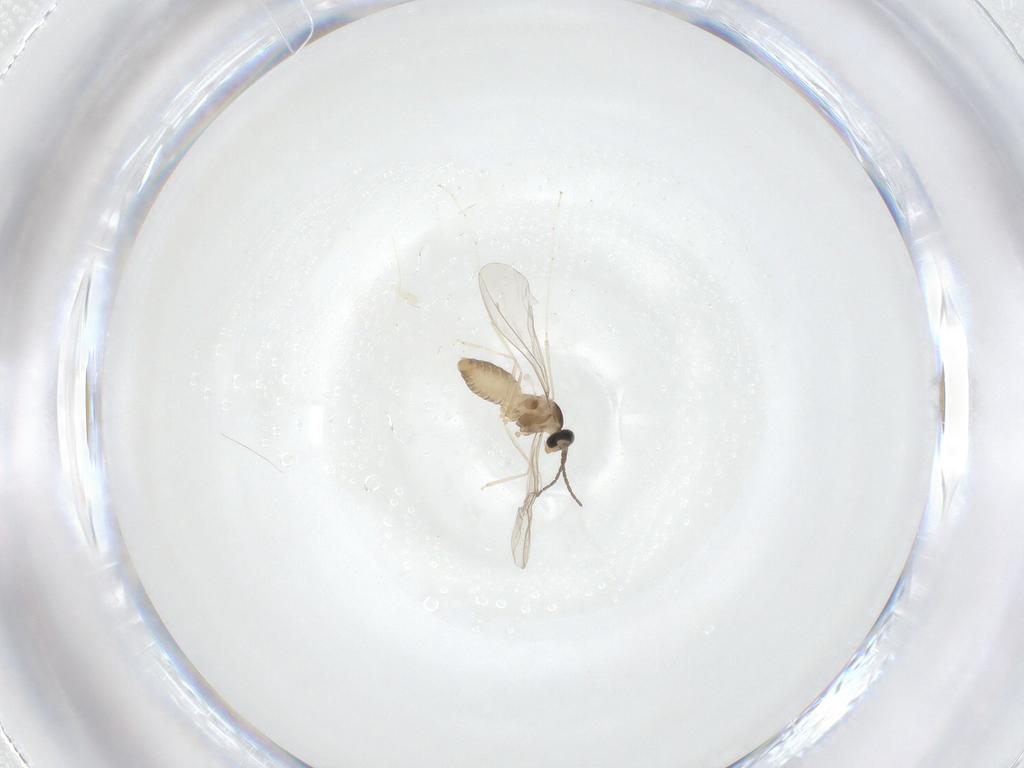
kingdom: Animalia
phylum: Arthropoda
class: Insecta
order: Diptera
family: Cecidomyiidae
